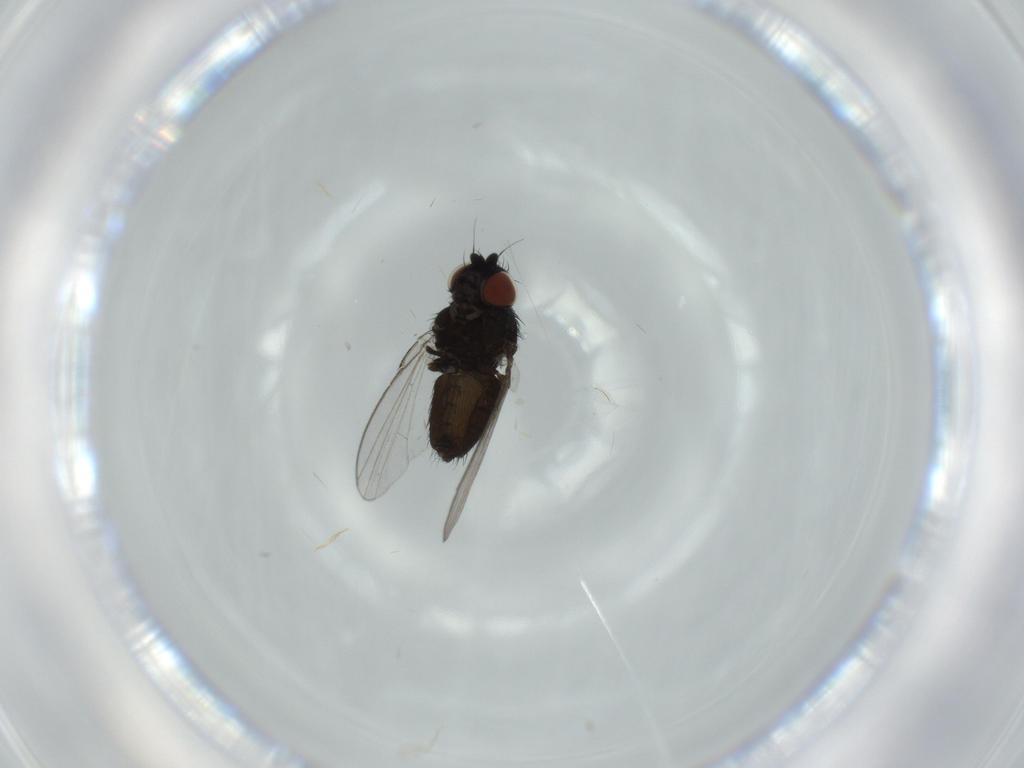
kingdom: Animalia
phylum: Arthropoda
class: Insecta
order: Diptera
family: Milichiidae
